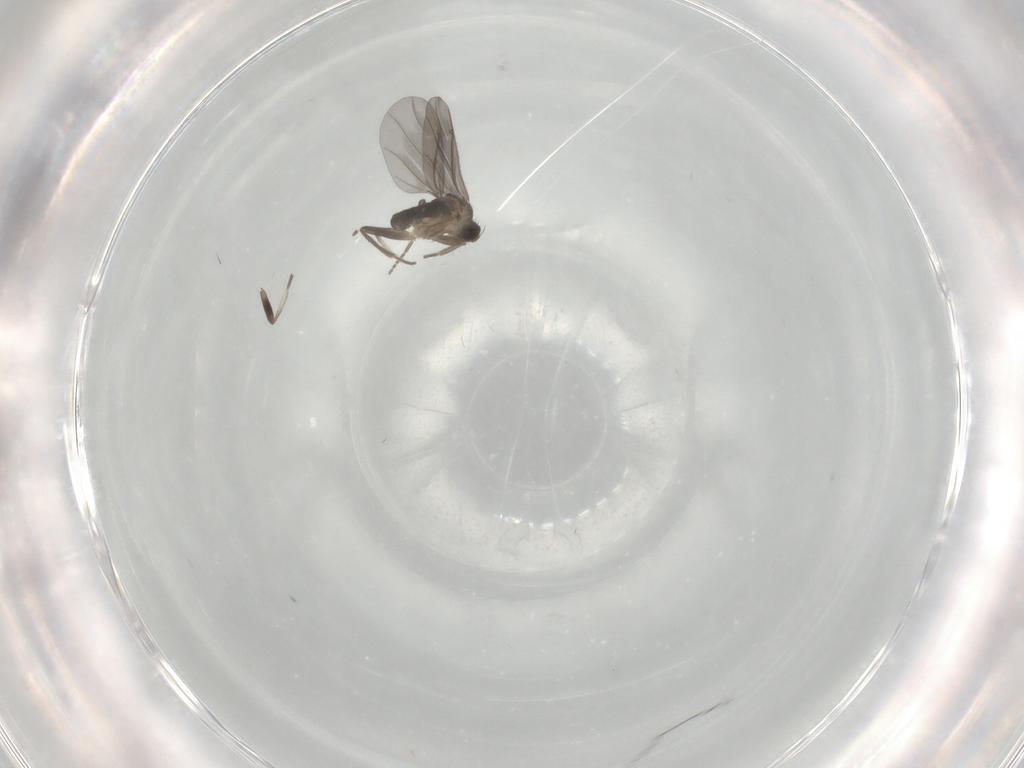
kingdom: Animalia
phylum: Arthropoda
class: Insecta
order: Diptera
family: Phoridae
